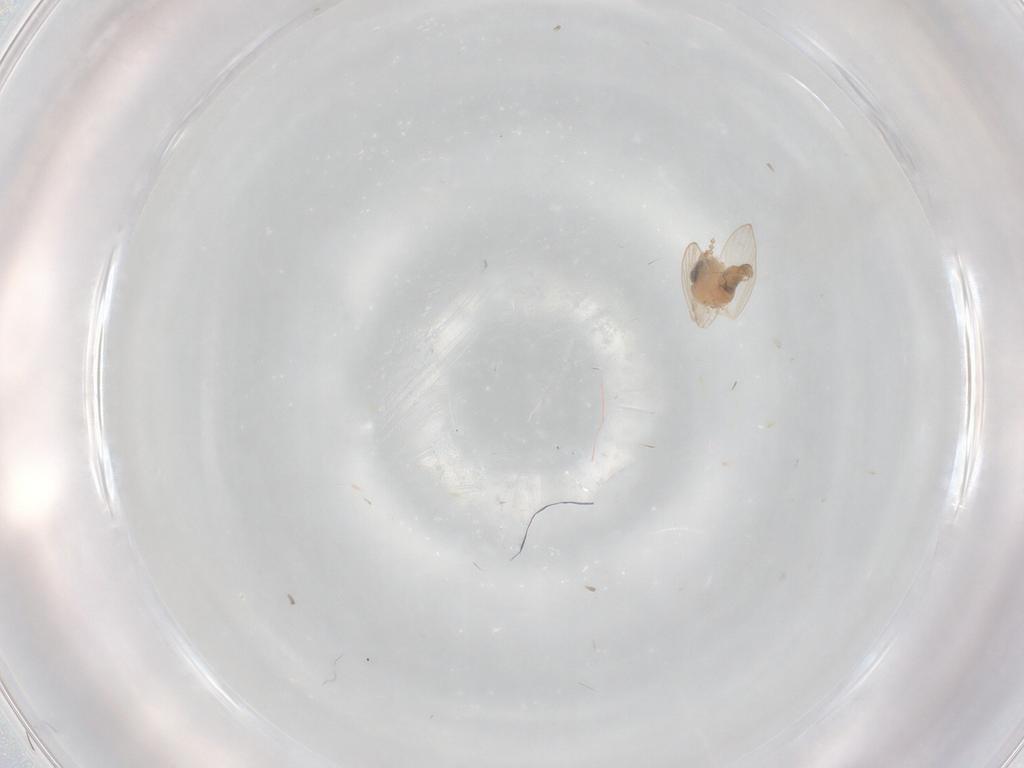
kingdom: Animalia
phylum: Arthropoda
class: Insecta
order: Diptera
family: Psychodidae
